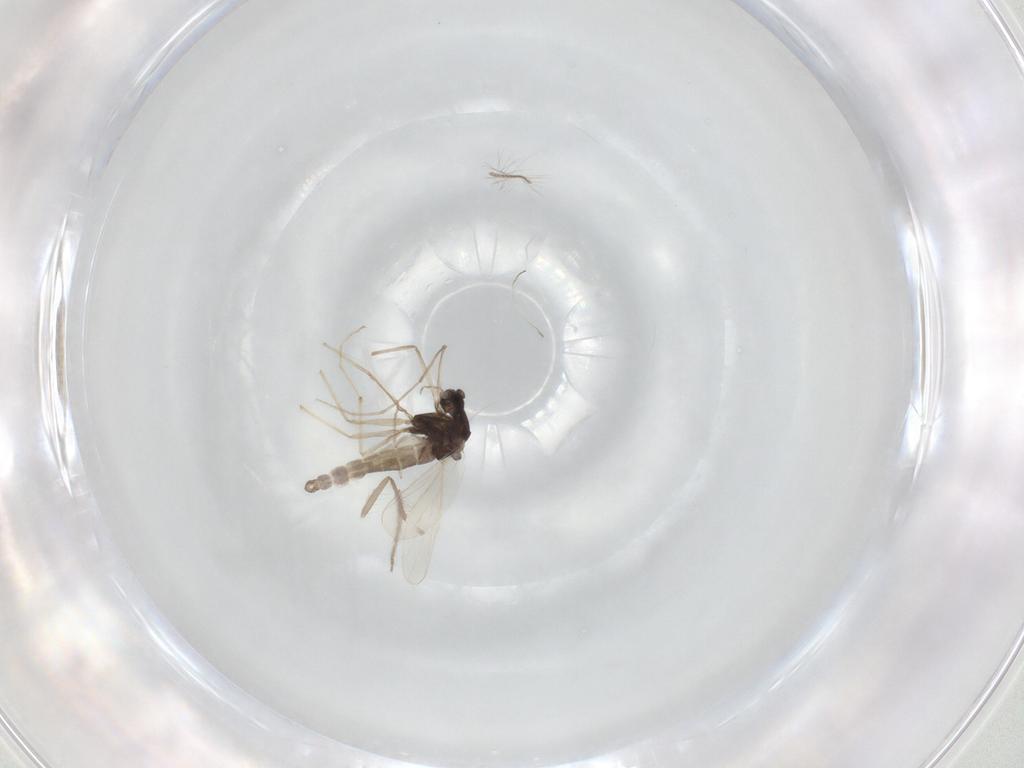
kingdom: Animalia
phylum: Arthropoda
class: Insecta
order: Diptera
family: Chironomidae
